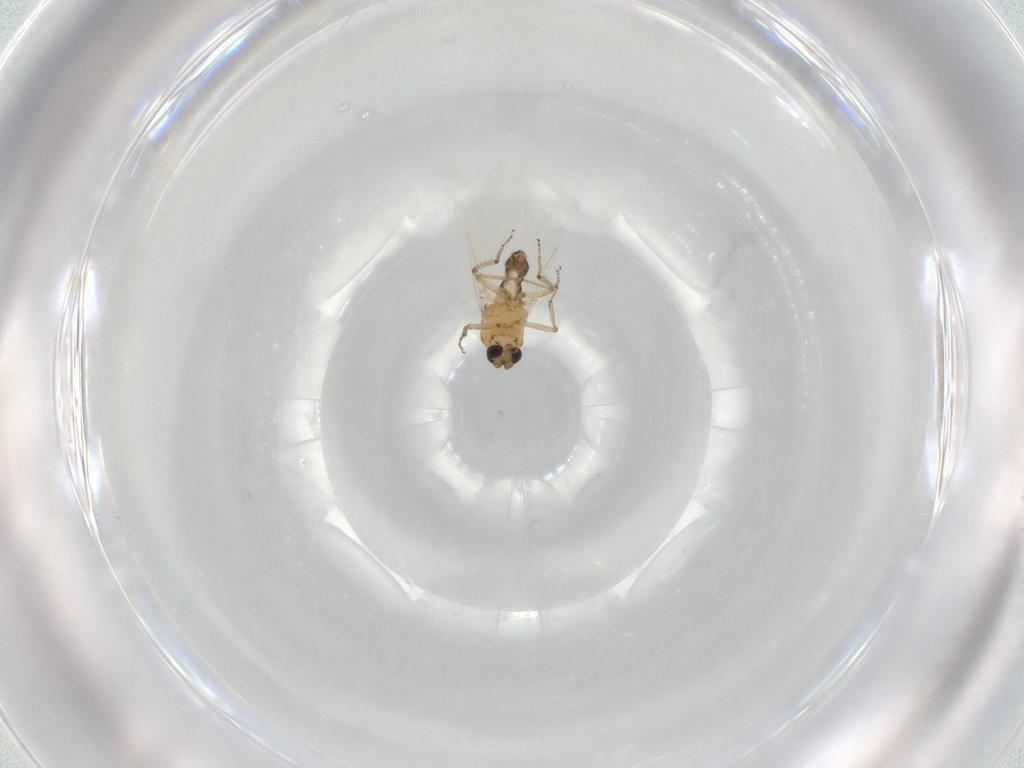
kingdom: Animalia
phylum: Arthropoda
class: Insecta
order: Diptera
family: Ceratopogonidae
